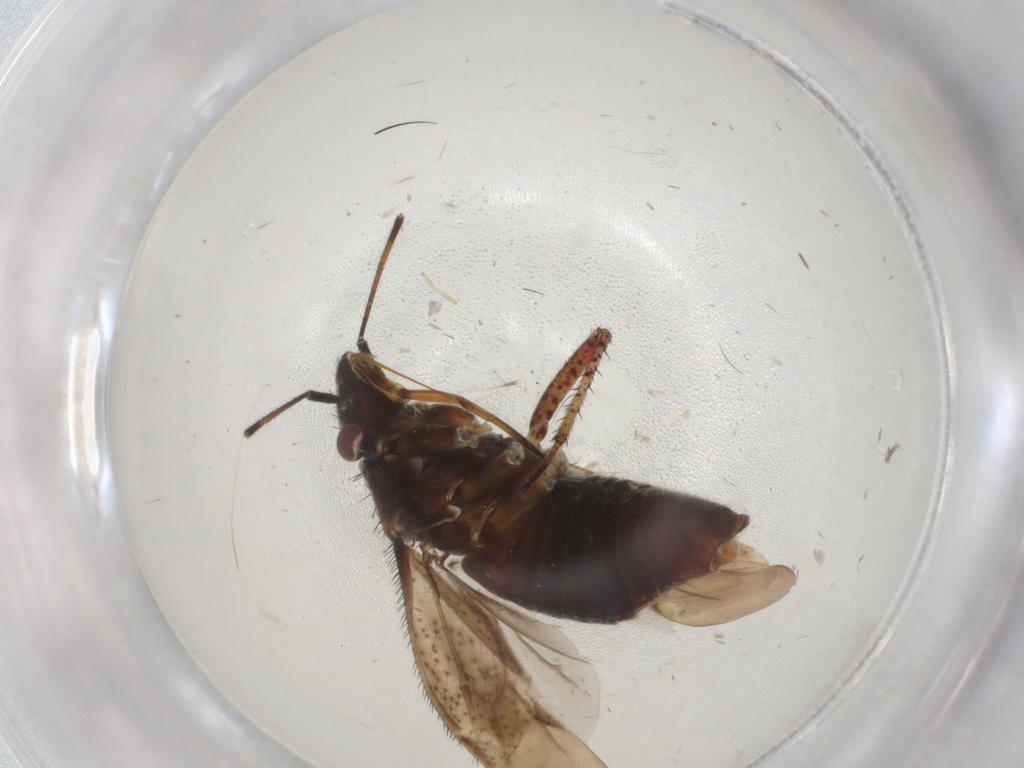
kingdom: Animalia
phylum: Arthropoda
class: Insecta
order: Hemiptera
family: Miridae
